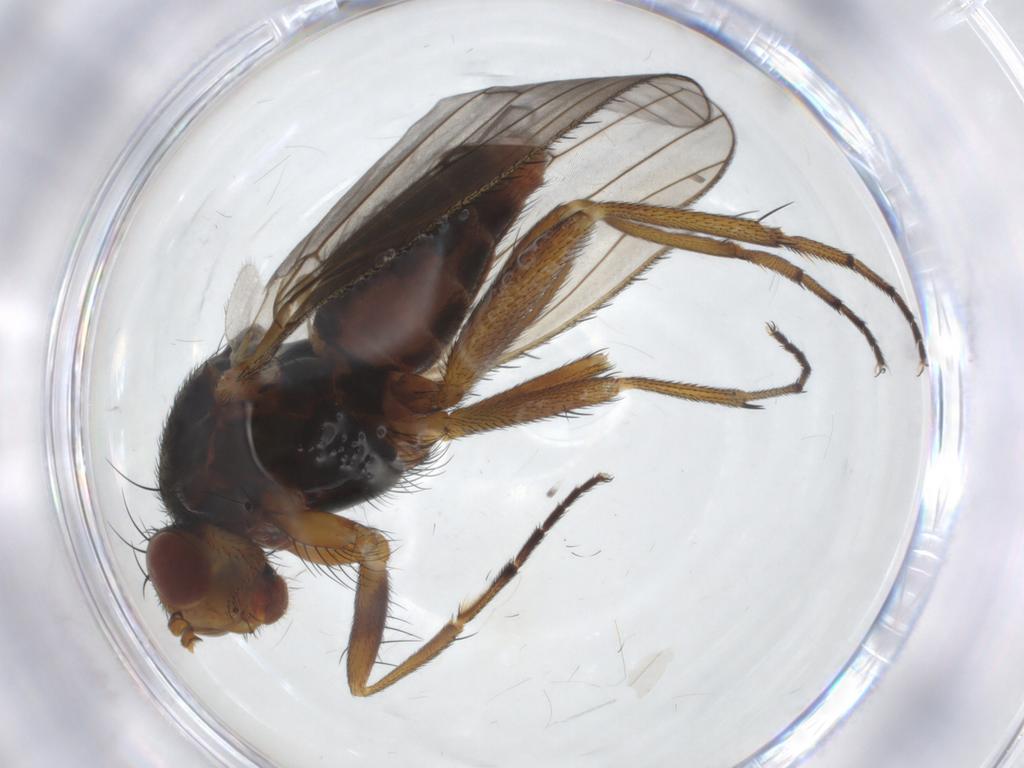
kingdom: Animalia
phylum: Arthropoda
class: Insecta
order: Diptera
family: Heleomyzidae
